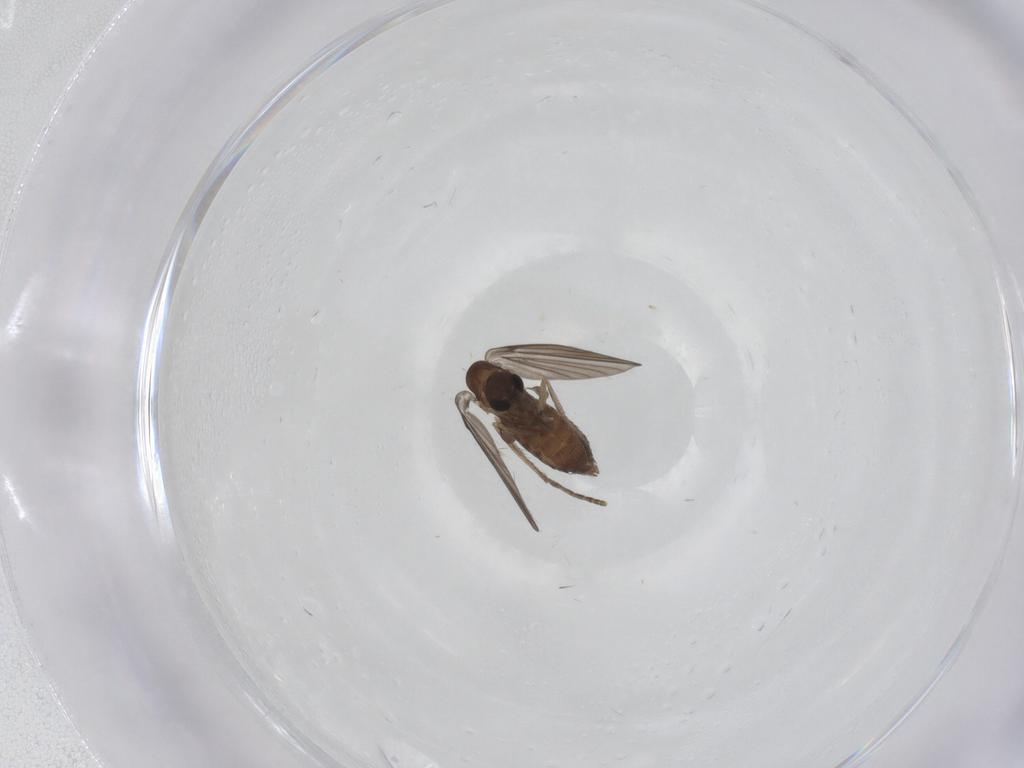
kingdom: Animalia
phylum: Arthropoda
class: Insecta
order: Diptera
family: Psychodidae
